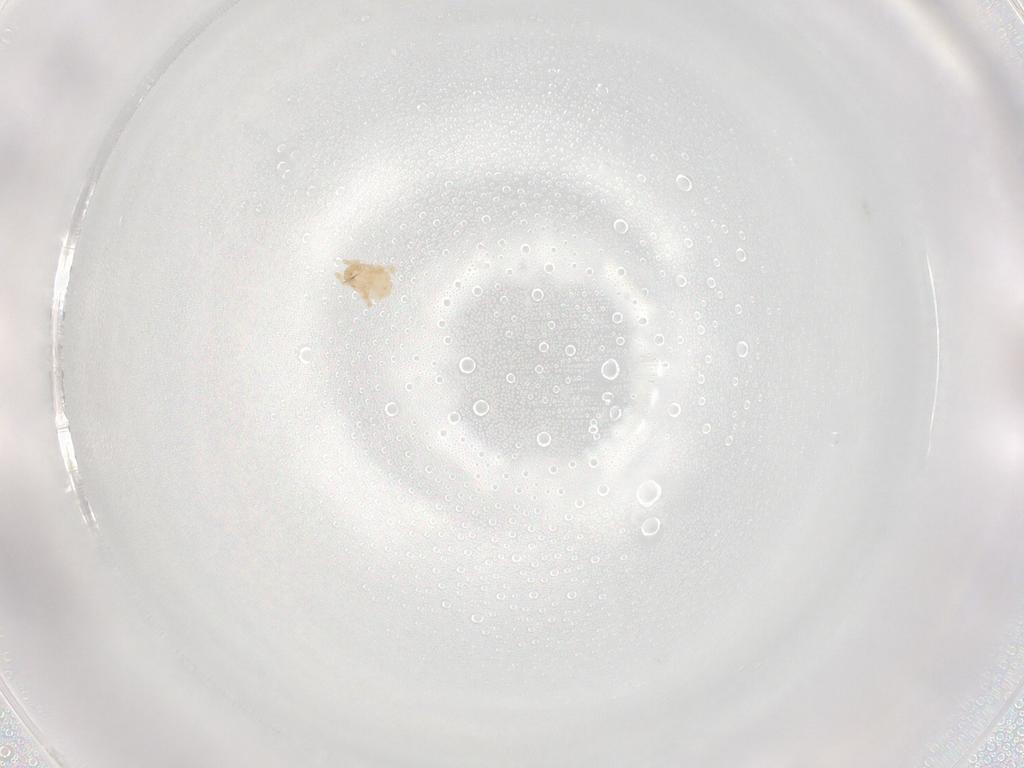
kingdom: Animalia
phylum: Arthropoda
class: Arachnida
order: Mesostigmata
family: Melicharidae
